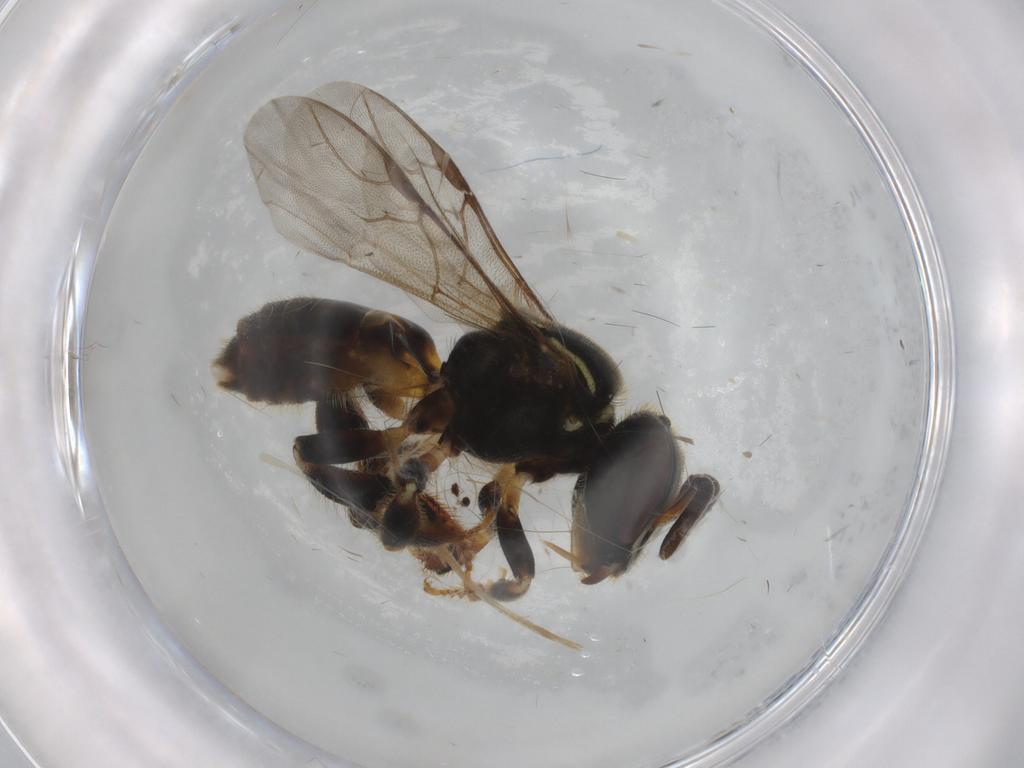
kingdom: Animalia
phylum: Arthropoda
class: Insecta
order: Hymenoptera
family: Apidae
